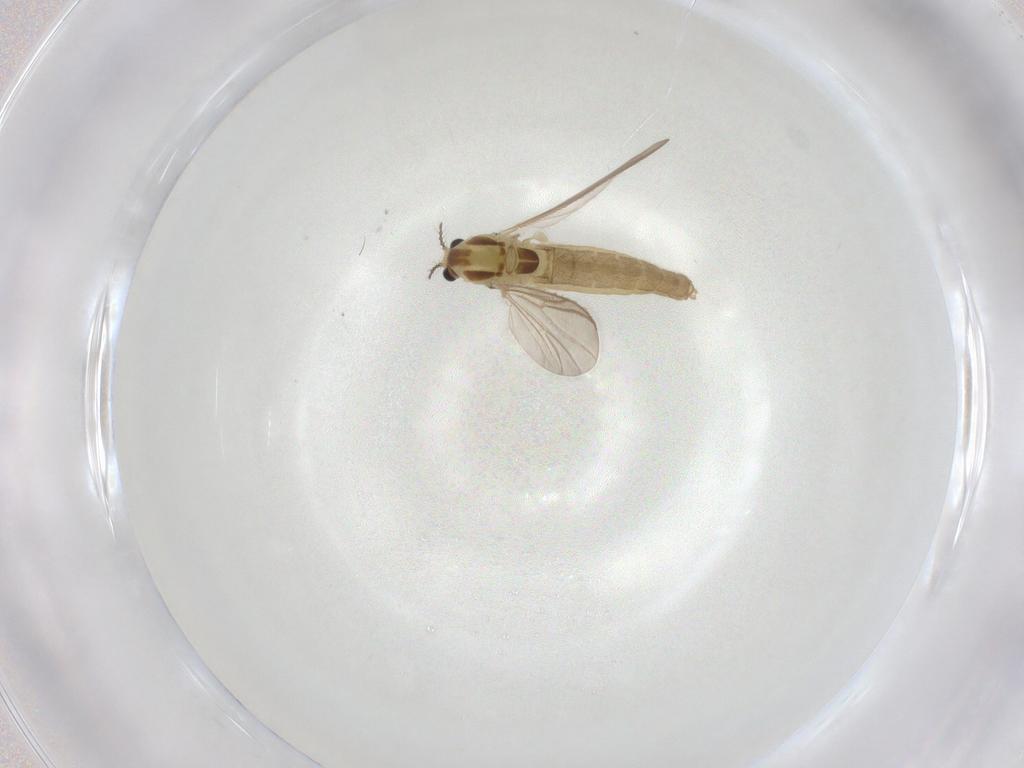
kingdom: Animalia
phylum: Arthropoda
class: Insecta
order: Diptera
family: Chironomidae
